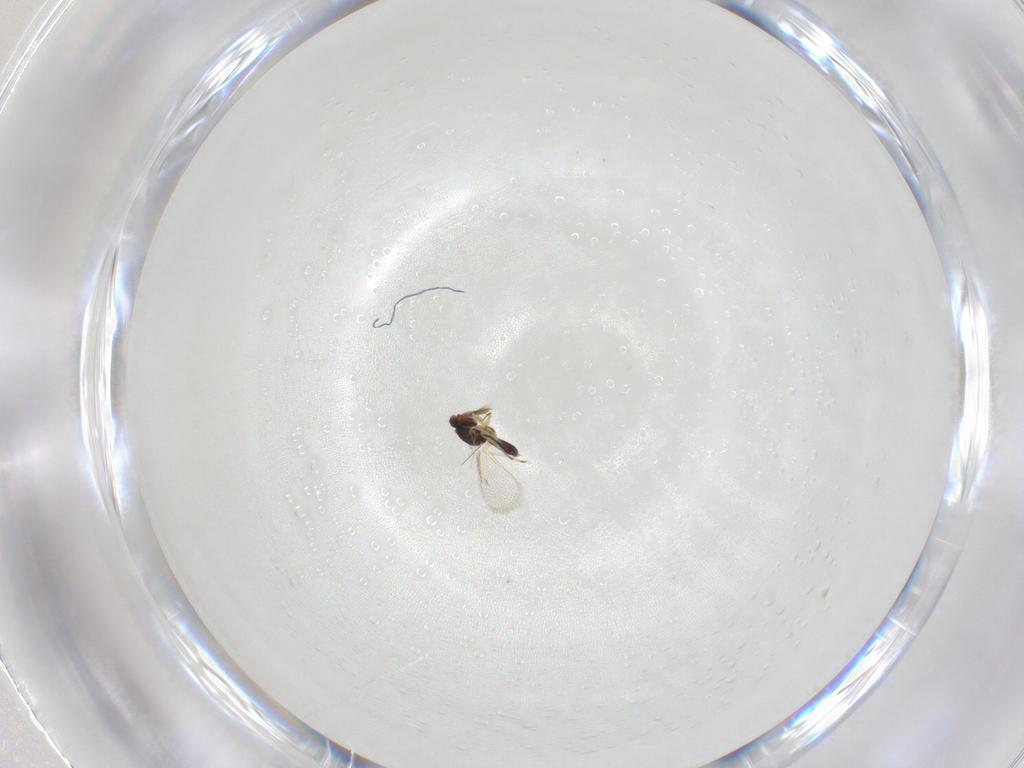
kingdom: Animalia
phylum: Arthropoda
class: Insecta
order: Hymenoptera
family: Eulophidae
